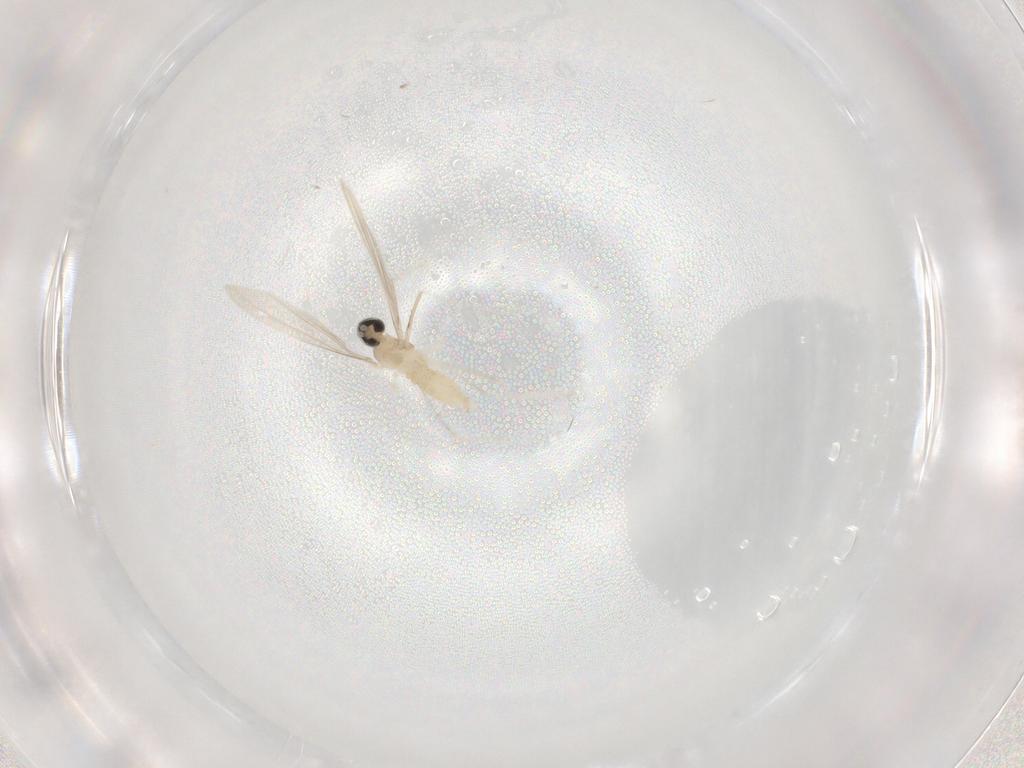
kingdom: Animalia
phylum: Arthropoda
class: Insecta
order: Diptera
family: Cecidomyiidae
